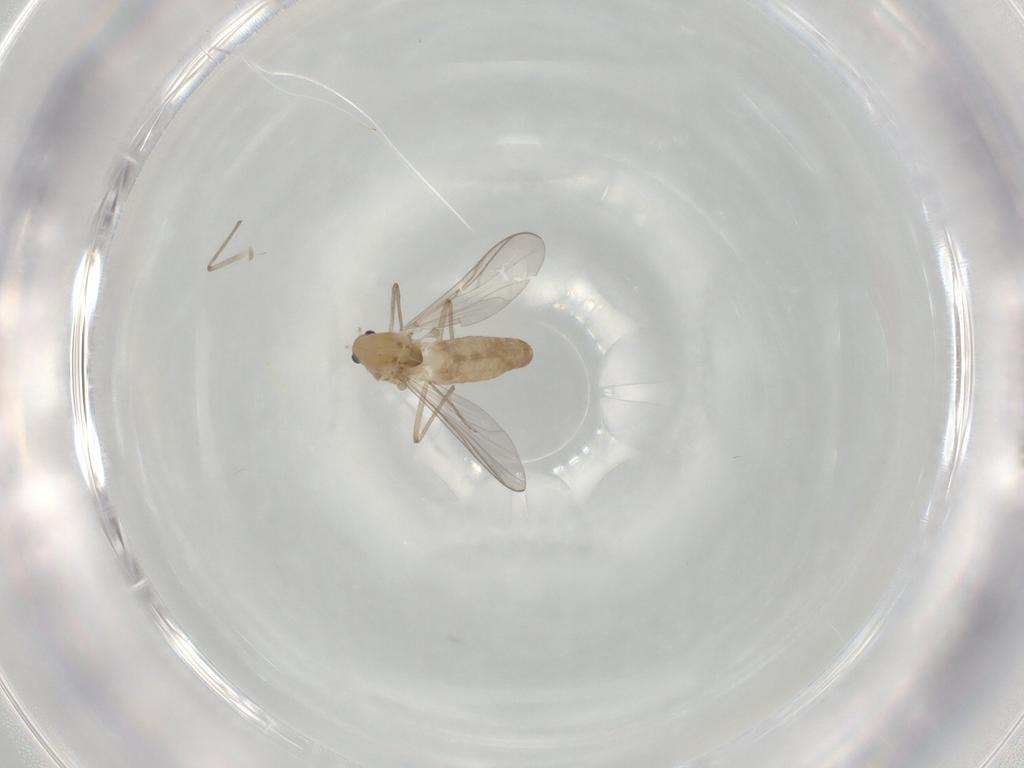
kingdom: Animalia
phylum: Arthropoda
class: Insecta
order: Diptera
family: Chironomidae
